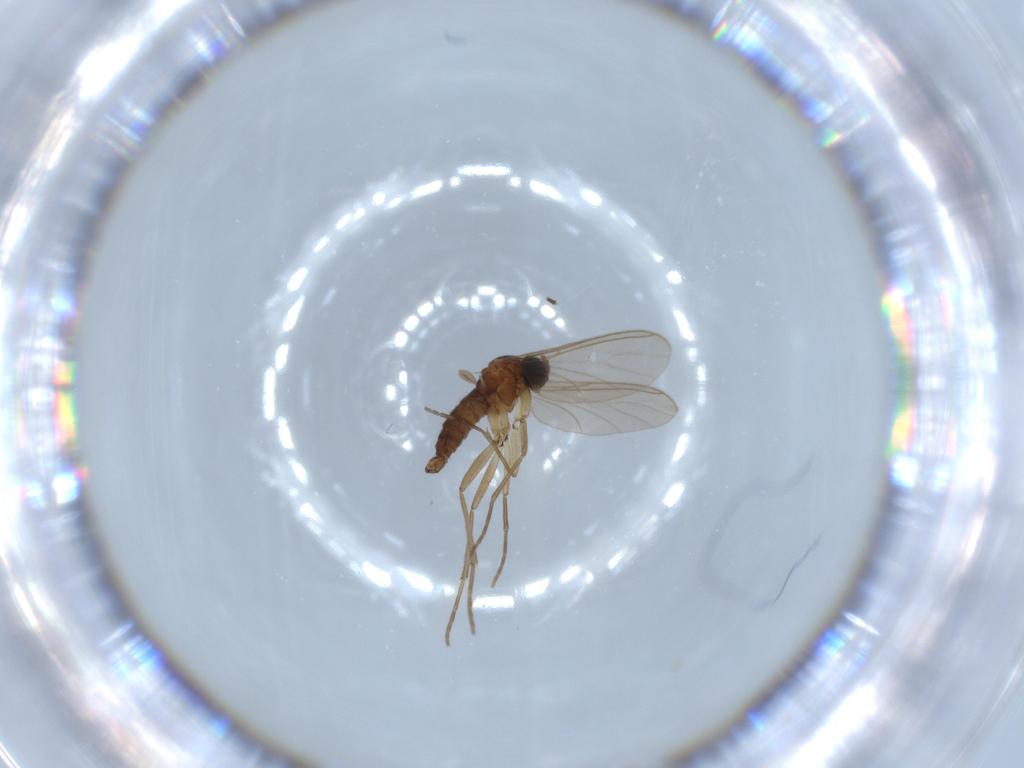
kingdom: Animalia
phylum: Arthropoda
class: Insecta
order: Diptera
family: Sciaridae
